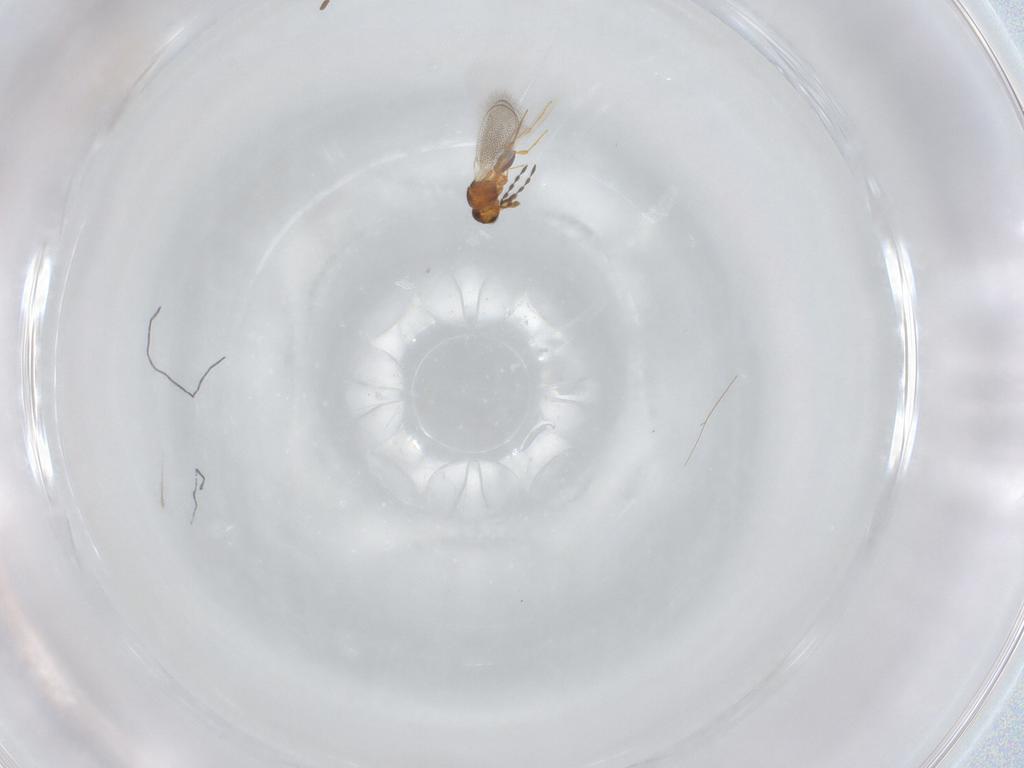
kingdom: Animalia
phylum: Arthropoda
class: Insecta
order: Hymenoptera
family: Platygastridae
